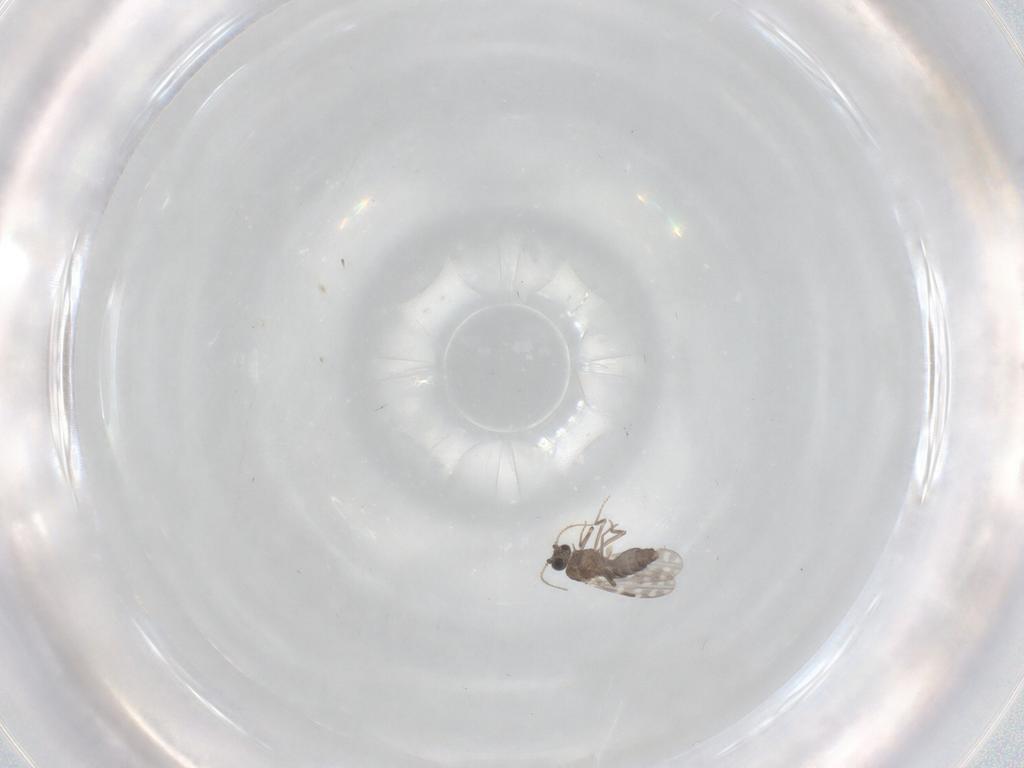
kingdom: Animalia
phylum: Arthropoda
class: Insecta
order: Diptera
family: Ceratopogonidae
